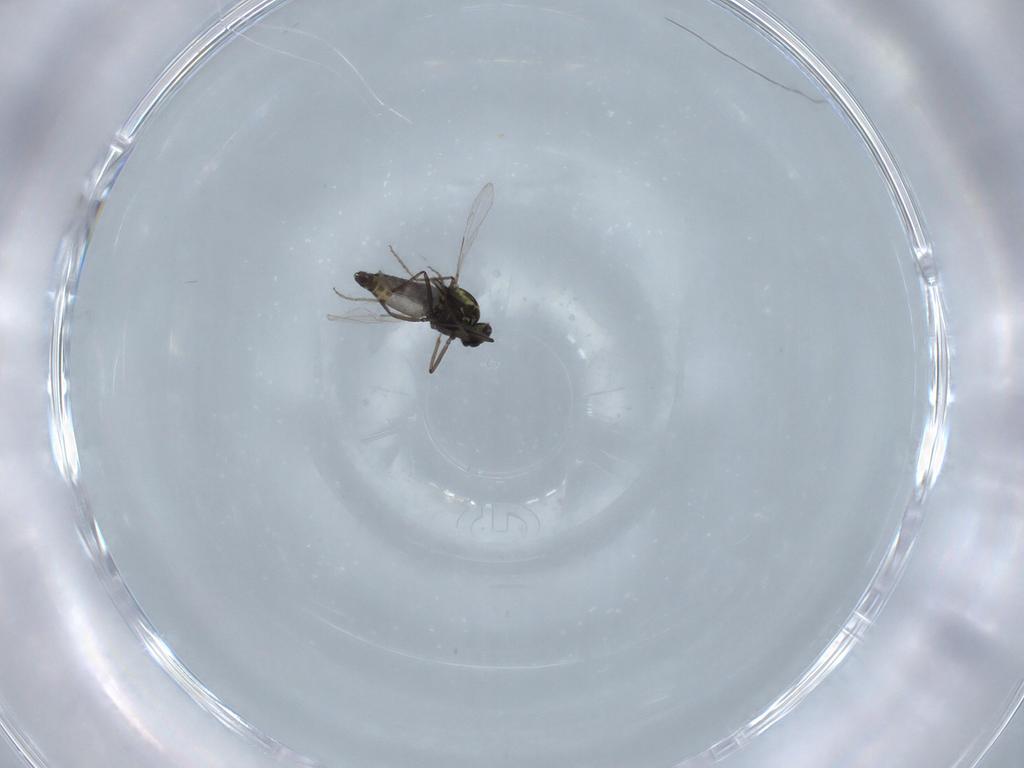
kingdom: Animalia
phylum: Arthropoda
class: Insecta
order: Diptera
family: Ceratopogonidae
